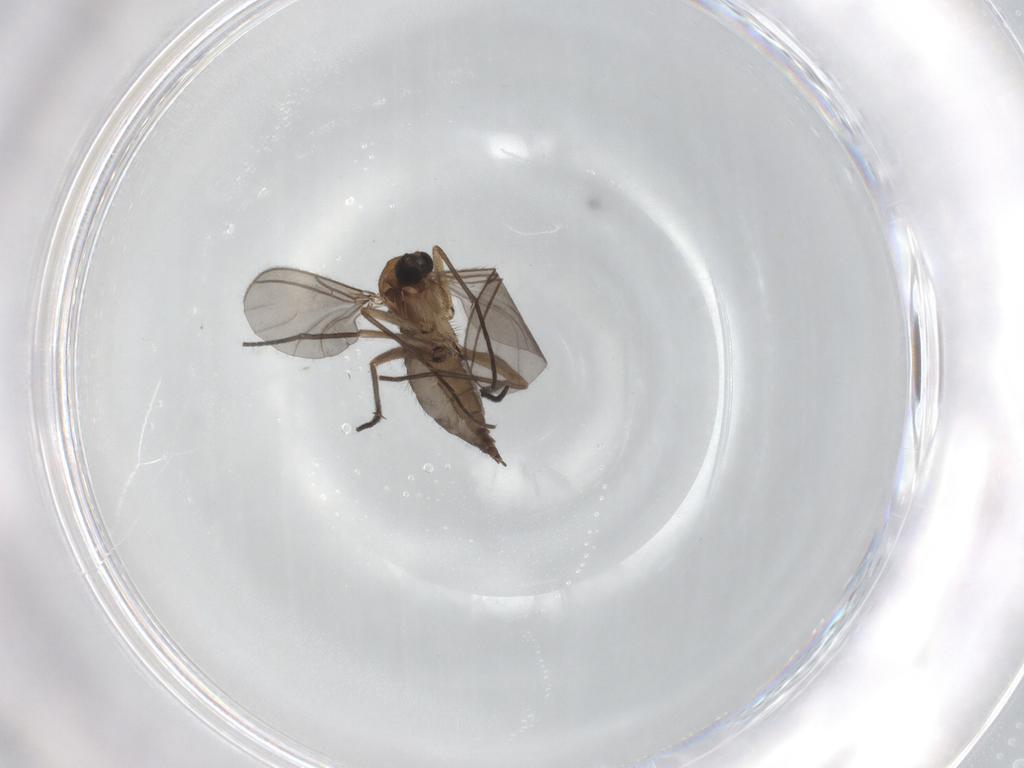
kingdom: Animalia
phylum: Arthropoda
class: Insecta
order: Diptera
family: Sciaridae
